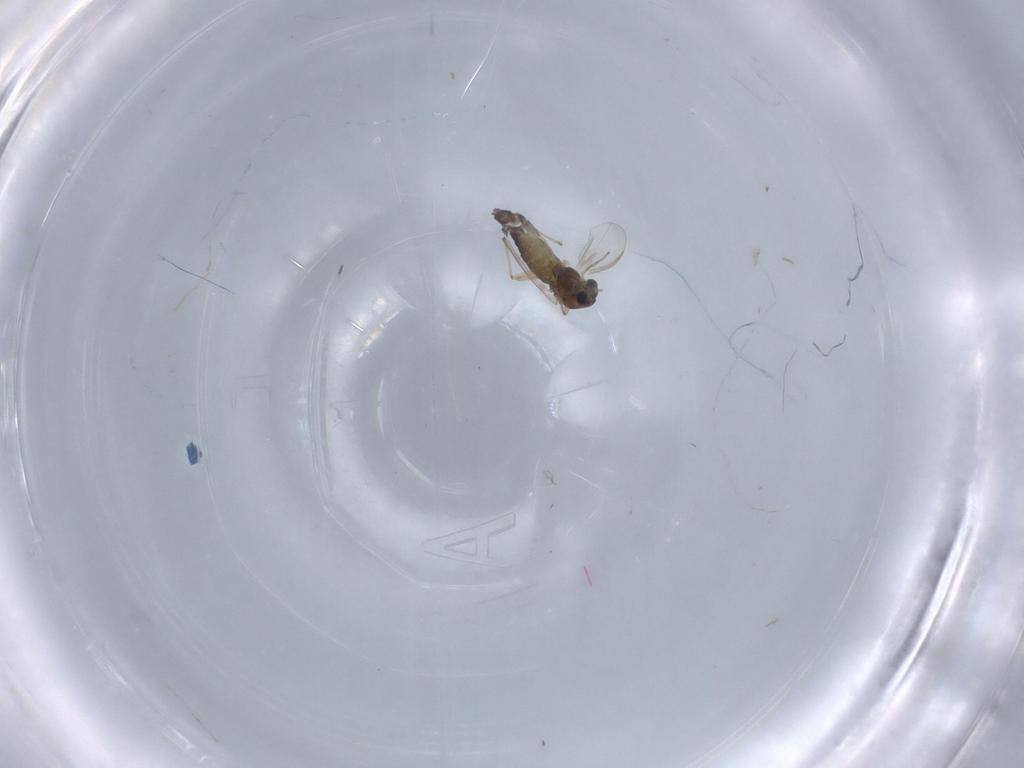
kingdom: Animalia
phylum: Arthropoda
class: Insecta
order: Diptera
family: Chironomidae
